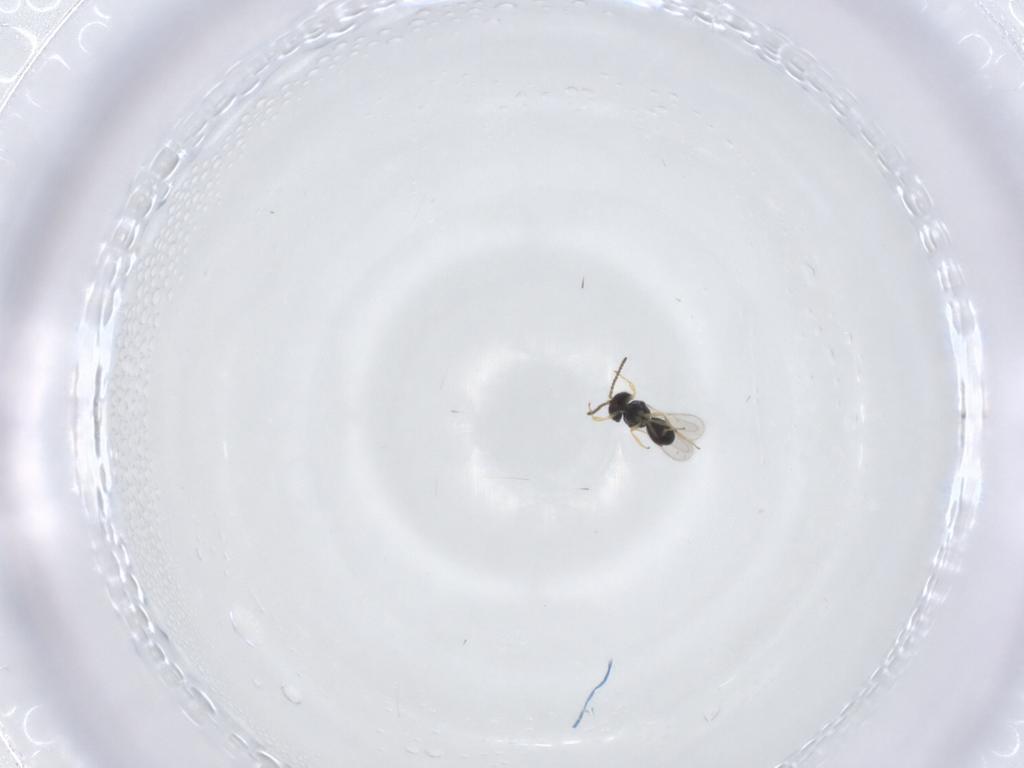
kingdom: Animalia
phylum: Arthropoda
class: Insecta
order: Hymenoptera
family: Scelionidae
